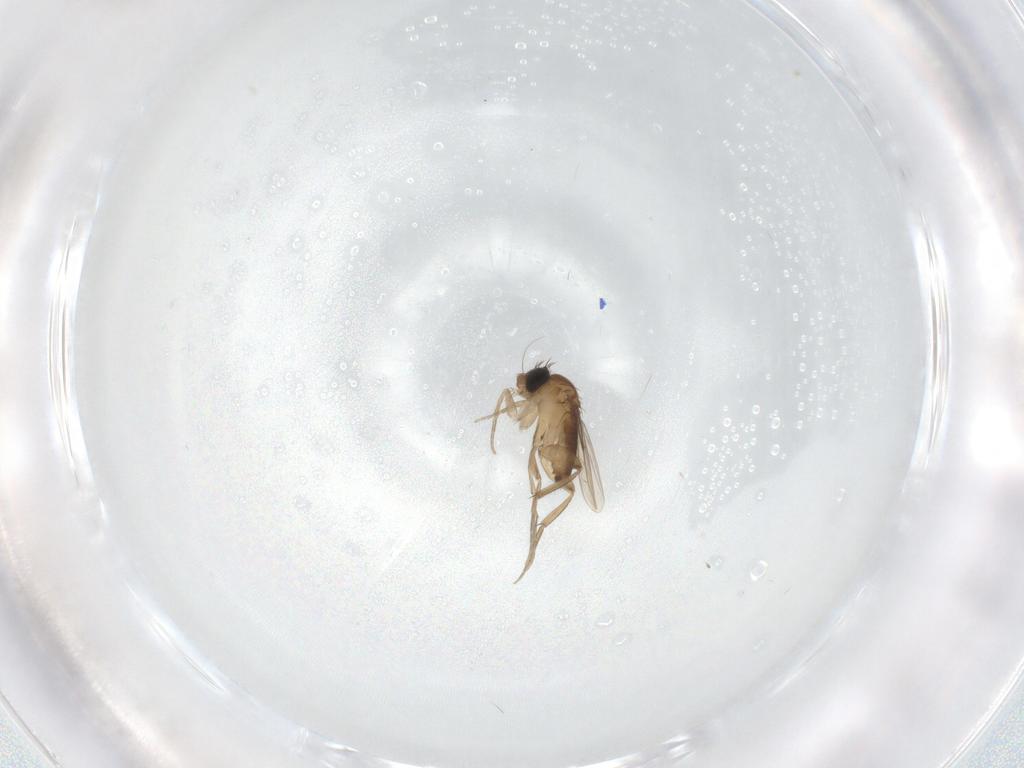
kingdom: Animalia
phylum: Arthropoda
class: Insecta
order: Diptera
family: Phoridae
